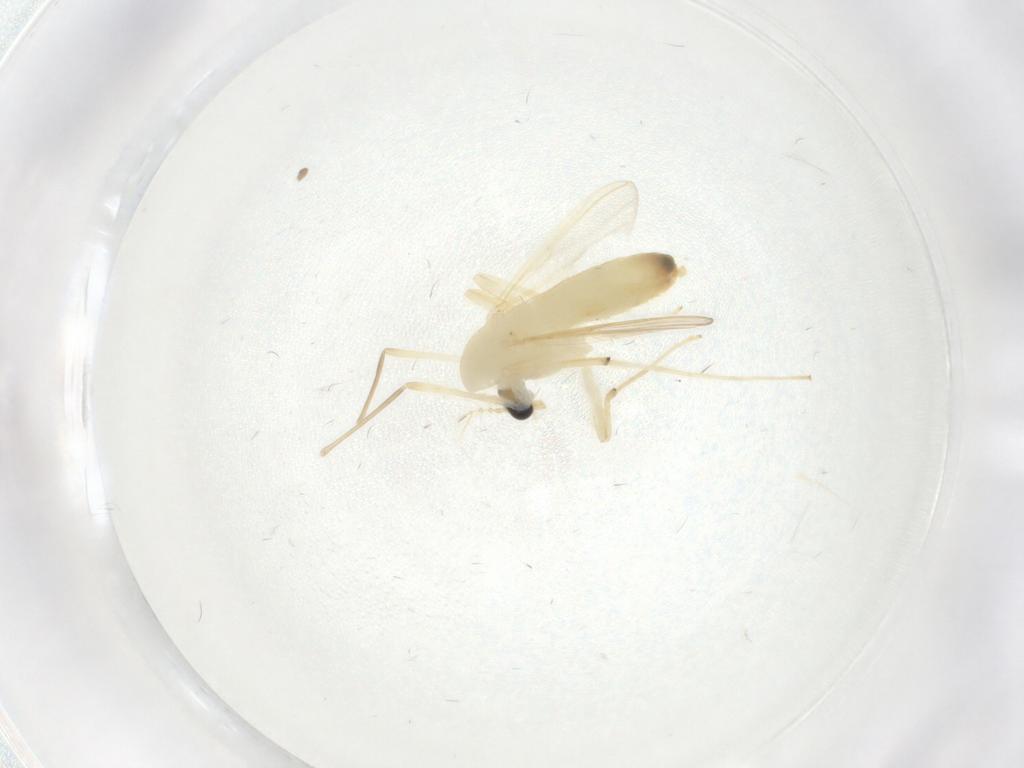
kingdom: Animalia
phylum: Arthropoda
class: Insecta
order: Diptera
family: Chironomidae
